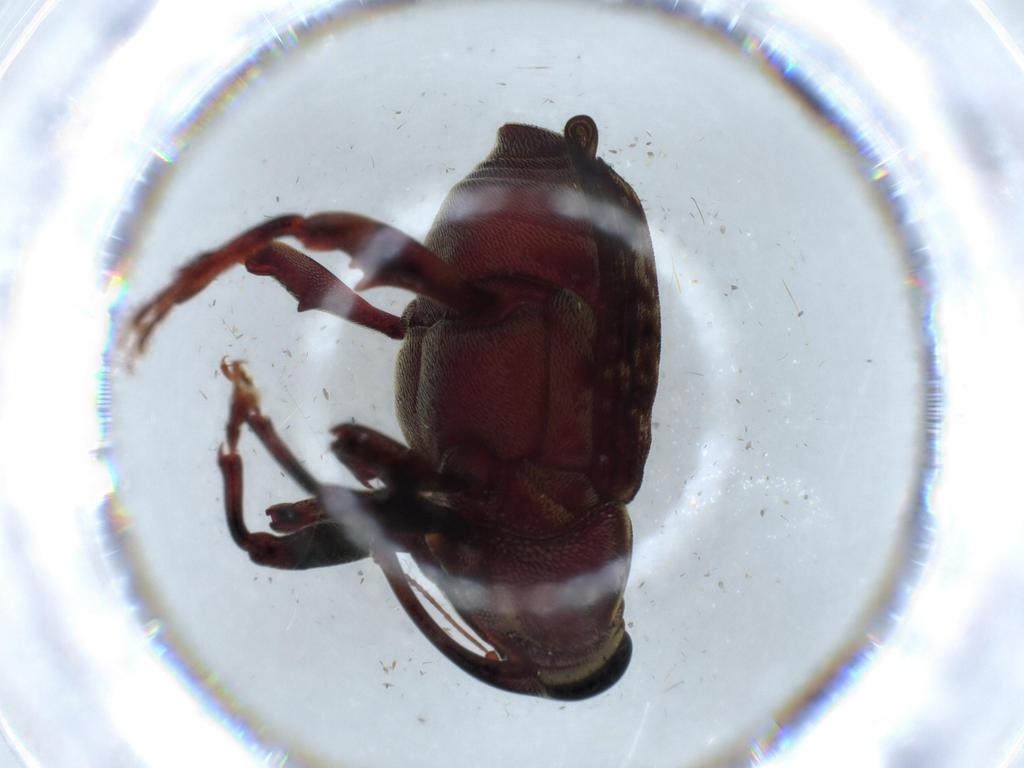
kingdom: Animalia
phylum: Arthropoda
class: Insecta
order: Coleoptera
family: Curculionidae
